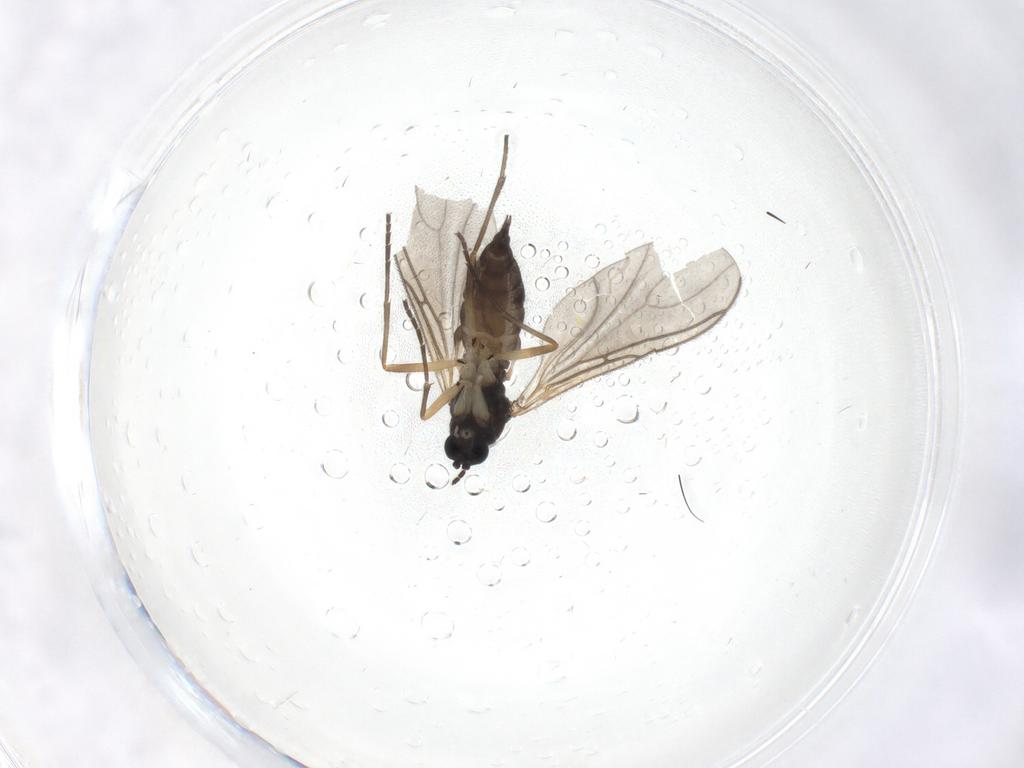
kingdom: Animalia
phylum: Arthropoda
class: Insecta
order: Diptera
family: Sciaridae
